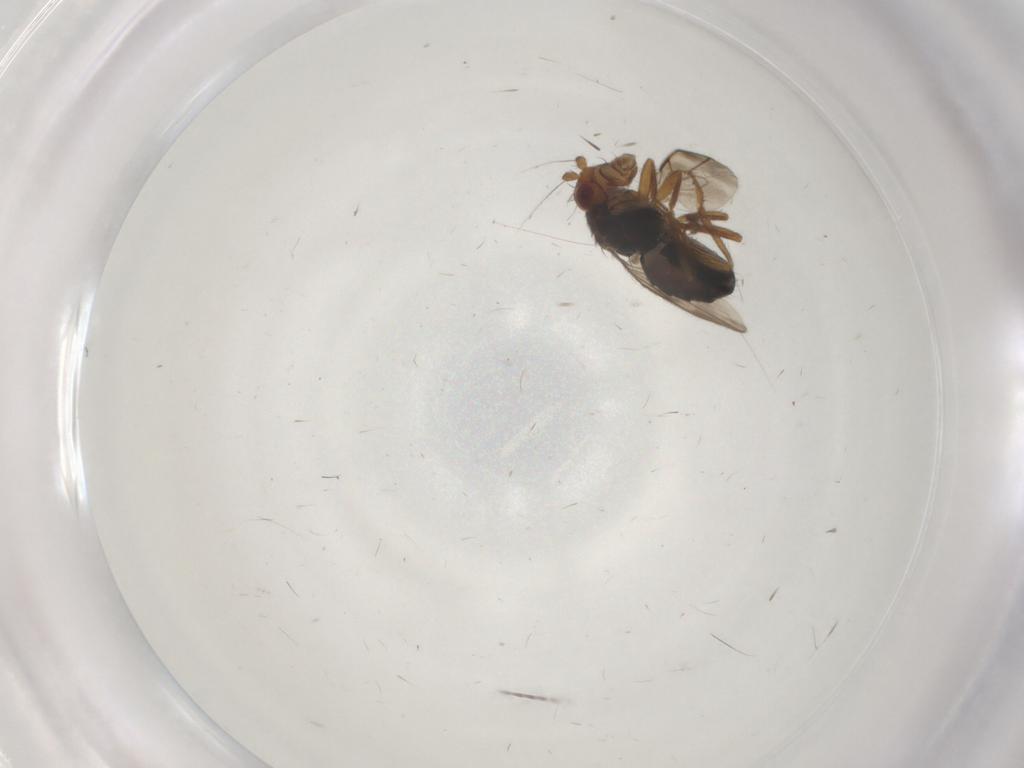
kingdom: Animalia
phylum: Arthropoda
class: Insecta
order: Diptera
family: Sphaeroceridae
